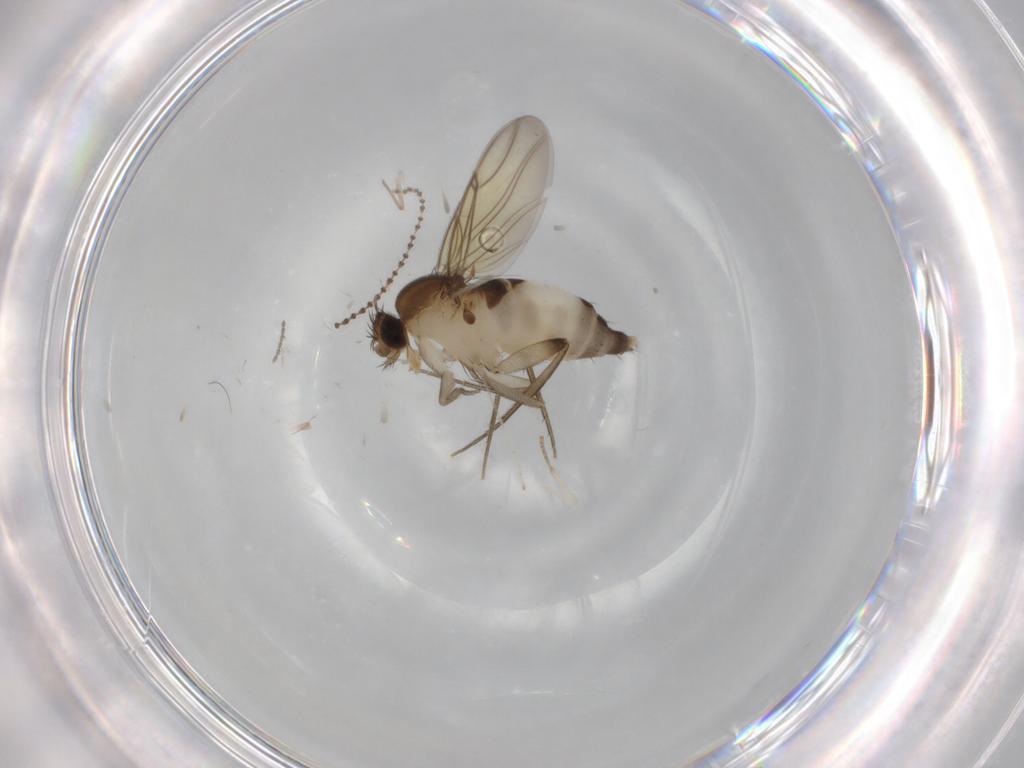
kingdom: Animalia
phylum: Arthropoda
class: Insecta
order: Diptera
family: Phoridae
